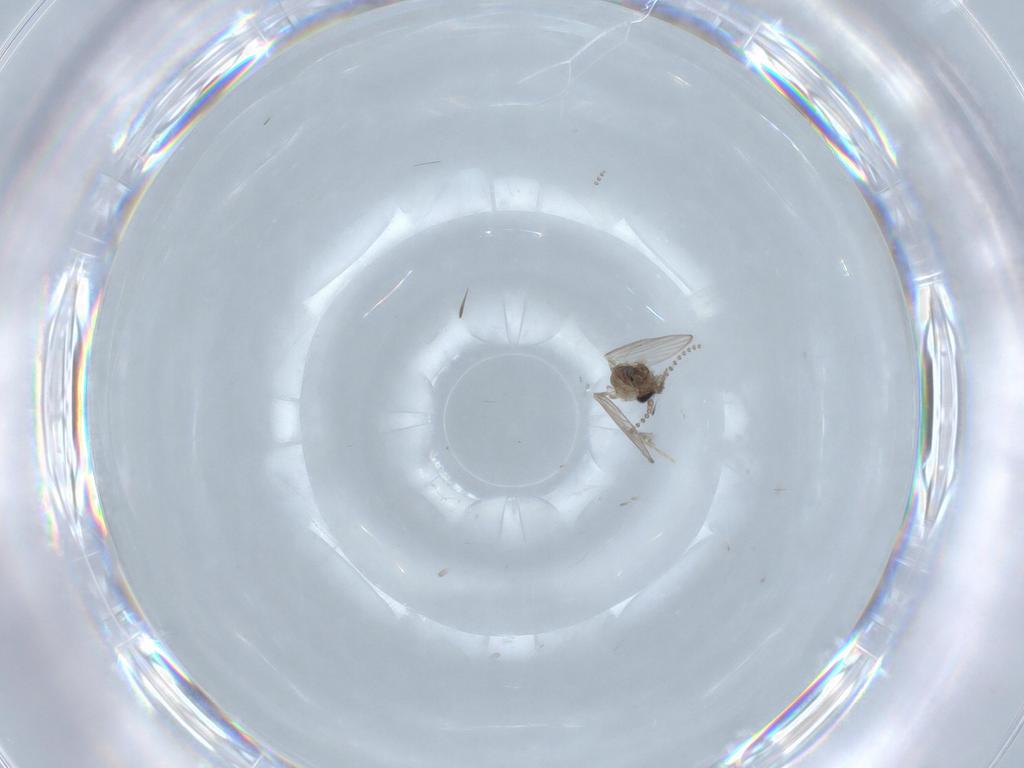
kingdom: Animalia
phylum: Arthropoda
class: Insecta
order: Diptera
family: Psychodidae
